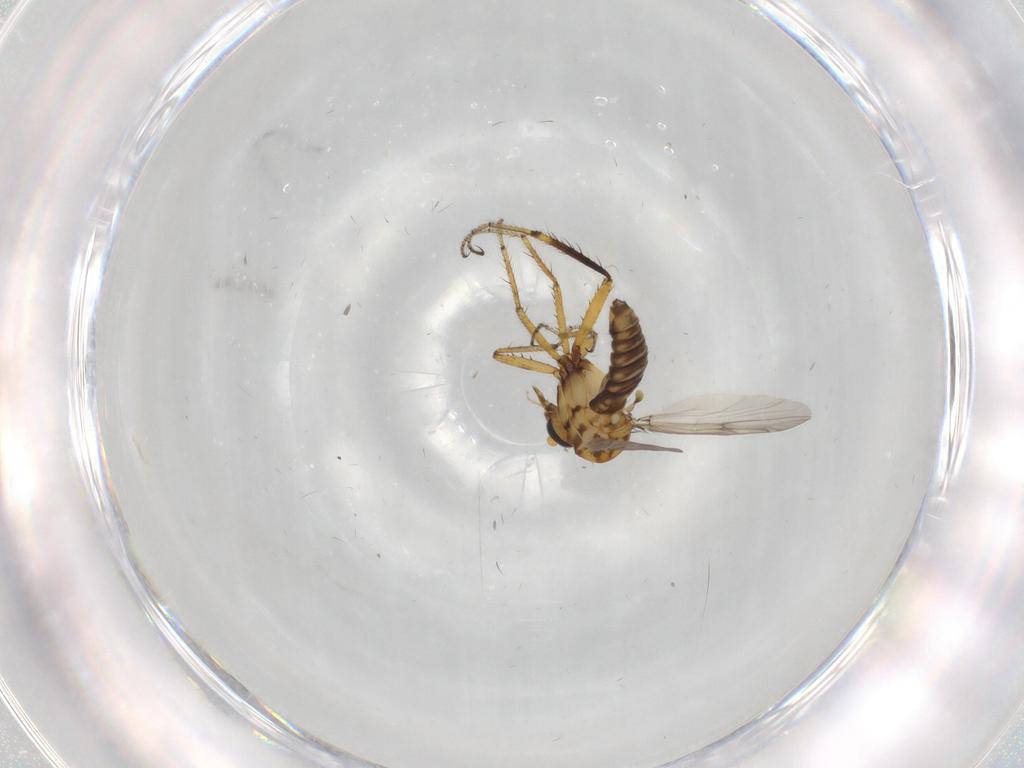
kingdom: Animalia
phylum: Arthropoda
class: Insecta
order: Diptera
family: Ceratopogonidae
